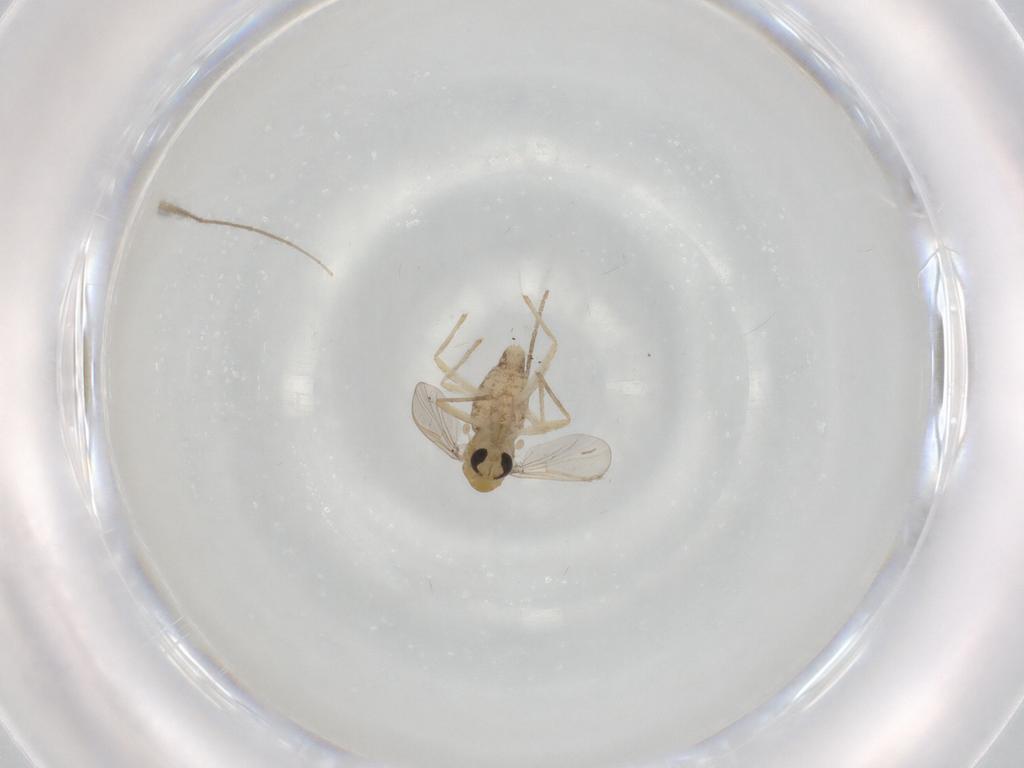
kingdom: Animalia
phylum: Arthropoda
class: Insecta
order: Diptera
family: Chironomidae
